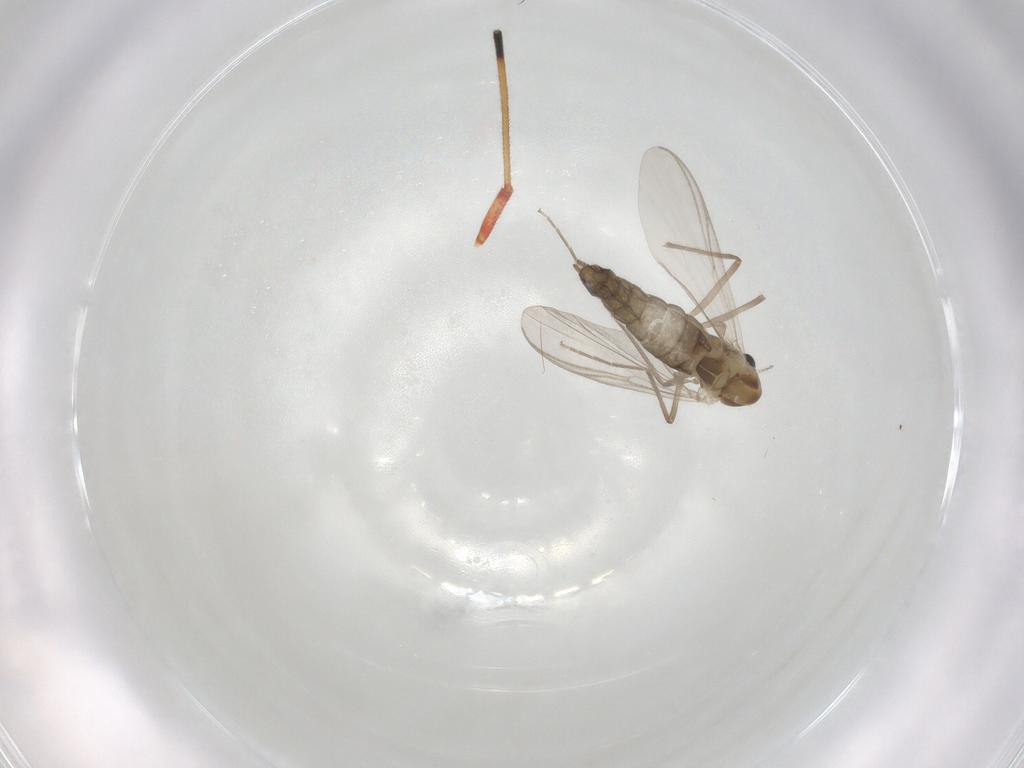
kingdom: Animalia
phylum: Arthropoda
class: Insecta
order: Diptera
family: Chironomidae
